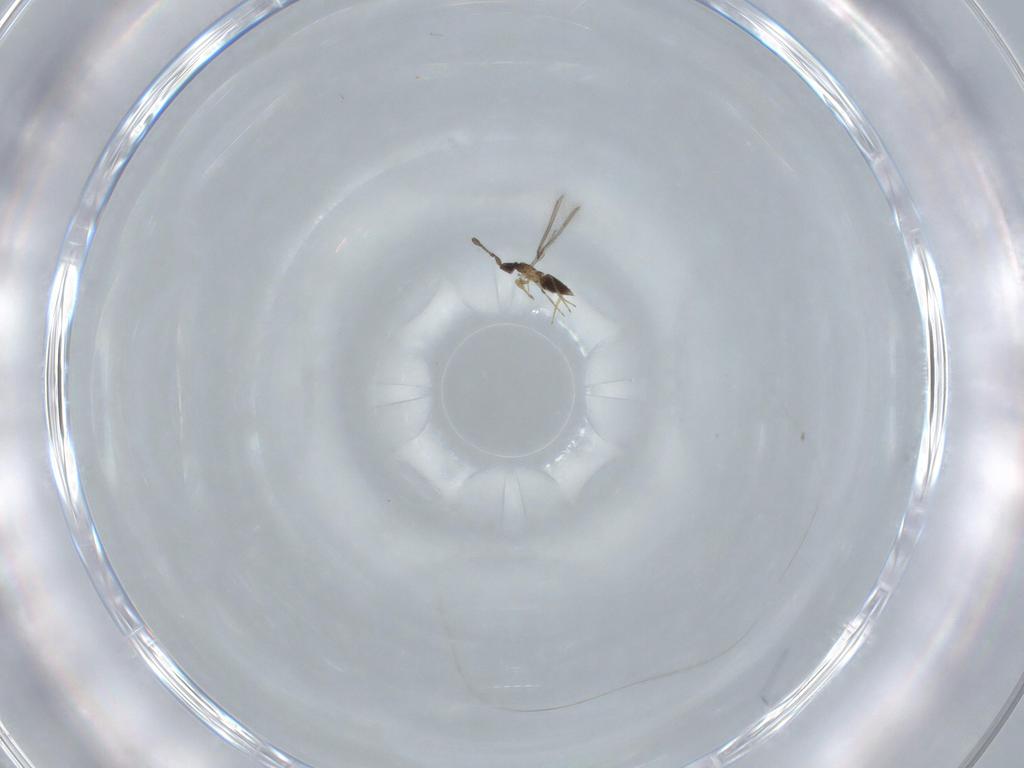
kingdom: Animalia
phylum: Arthropoda
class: Insecta
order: Hymenoptera
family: Mymaridae
